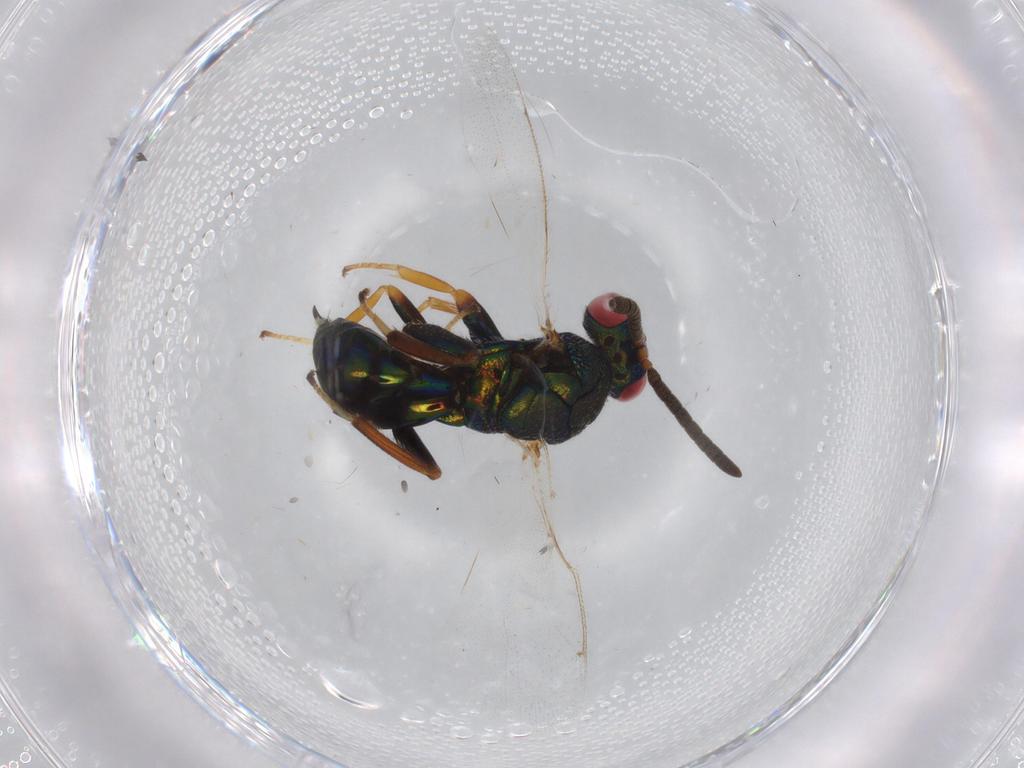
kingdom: Animalia
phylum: Arthropoda
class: Insecta
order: Hymenoptera
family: Torymidae
